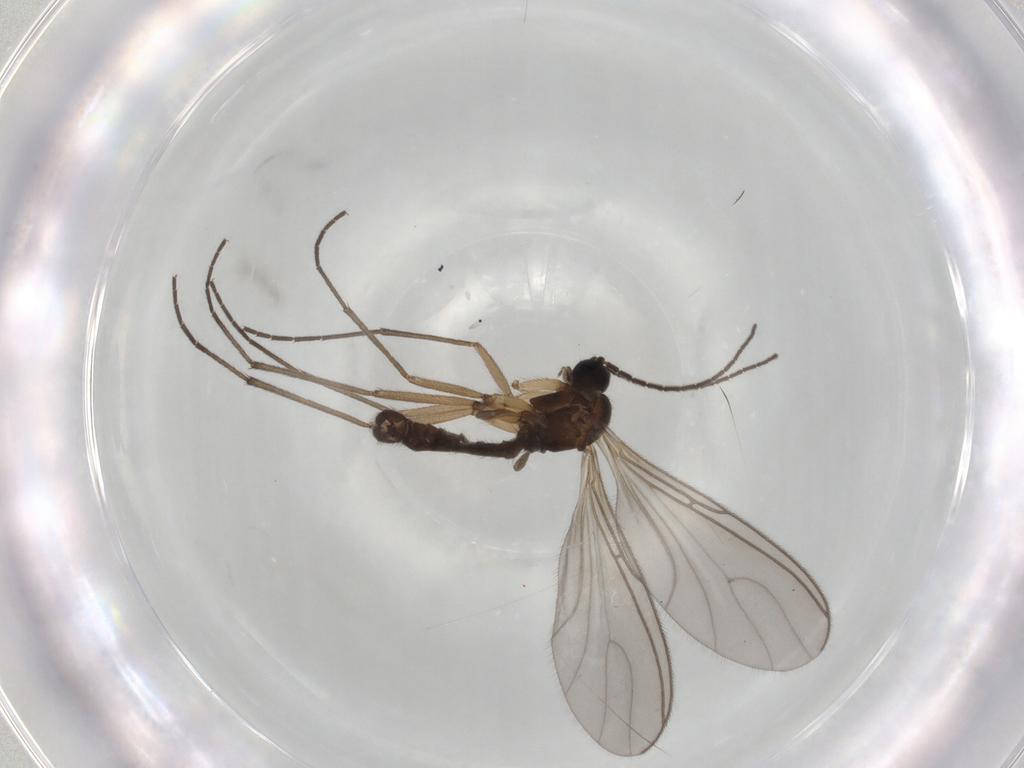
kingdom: Animalia
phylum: Arthropoda
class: Insecta
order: Diptera
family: Sciaridae
